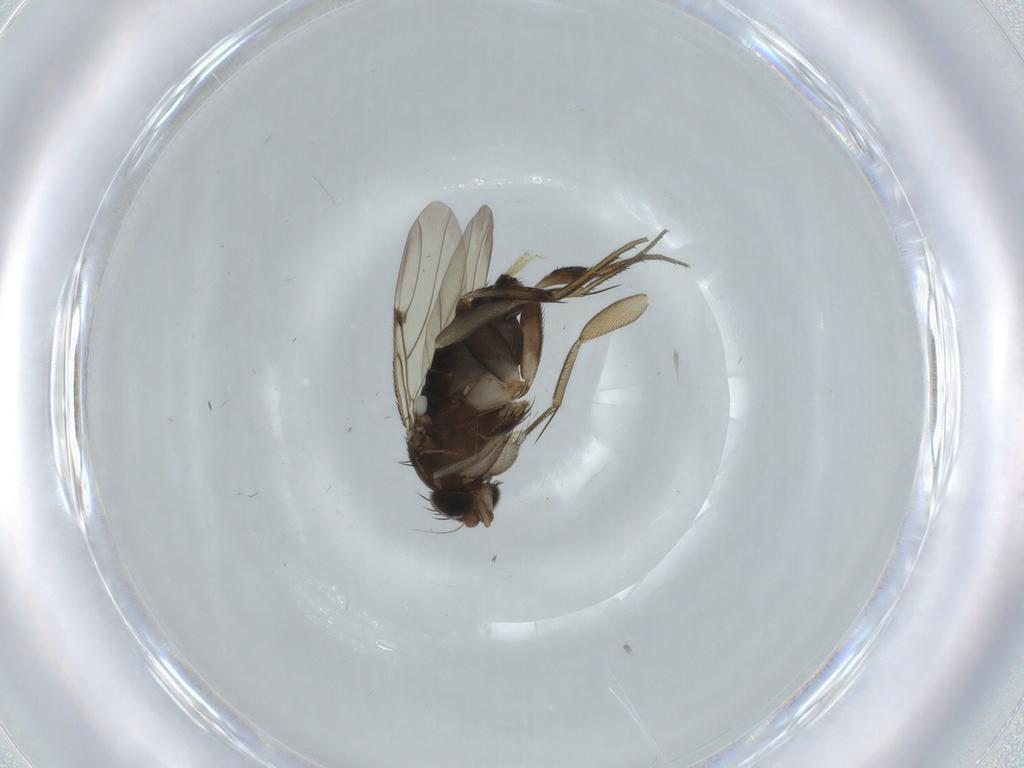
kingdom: Animalia
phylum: Arthropoda
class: Insecta
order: Diptera
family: Phoridae
